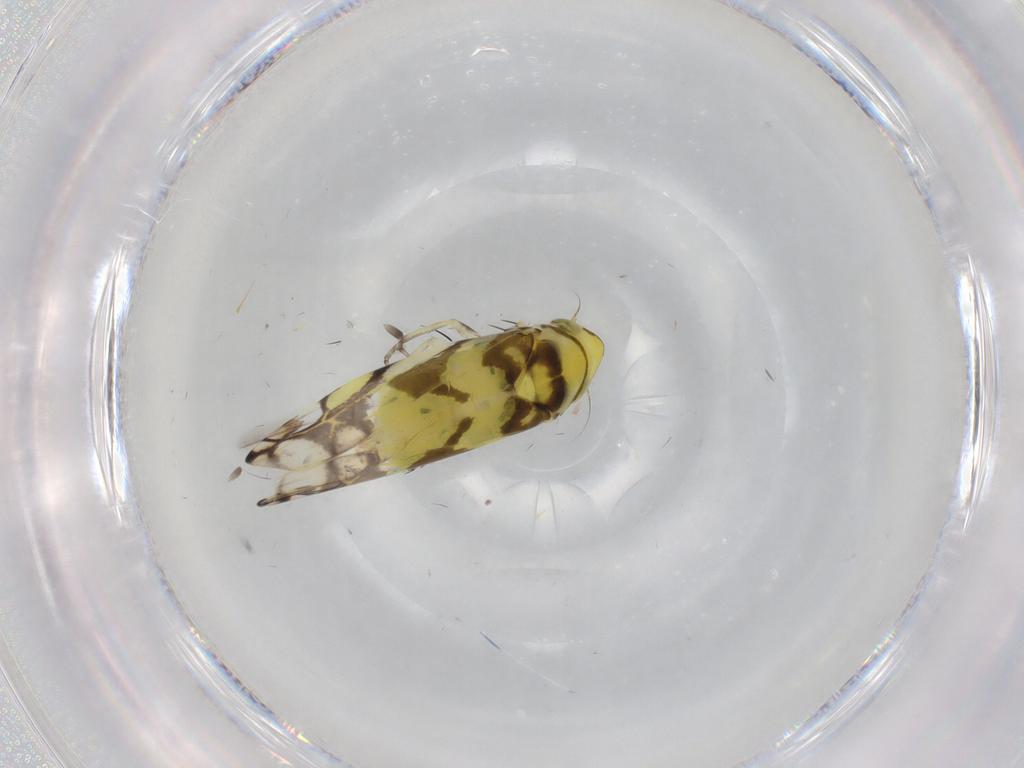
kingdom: Animalia
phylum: Arthropoda
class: Insecta
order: Hemiptera
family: Cicadellidae
